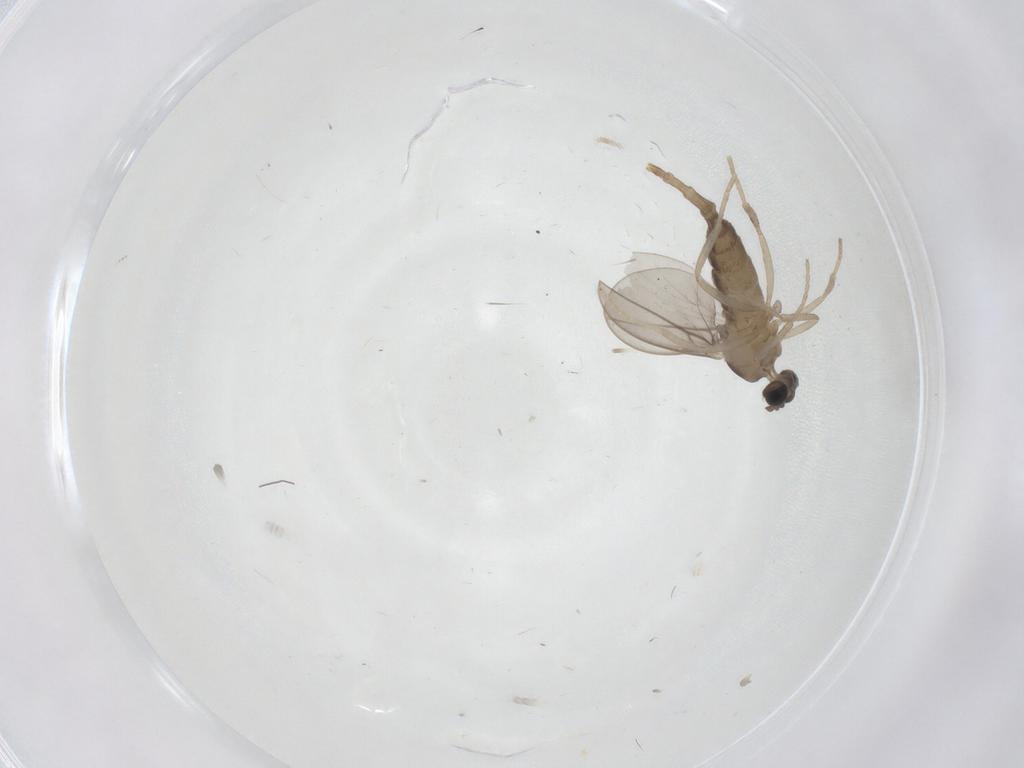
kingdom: Animalia
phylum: Arthropoda
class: Insecta
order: Diptera
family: Cecidomyiidae
